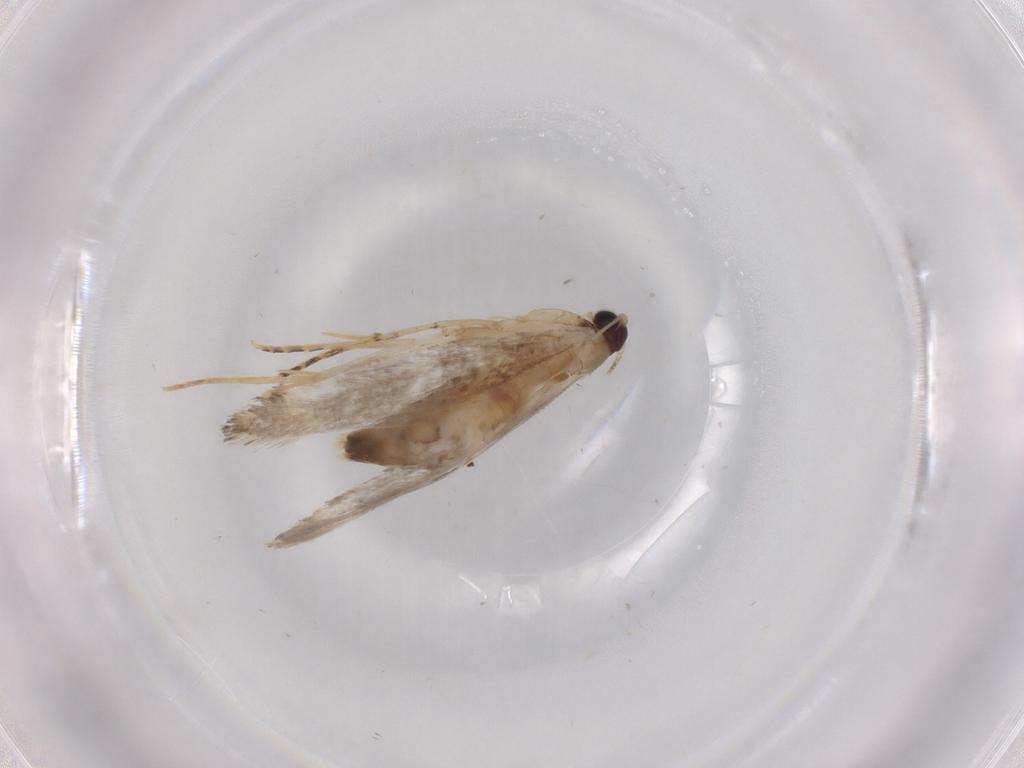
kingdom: Animalia
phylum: Arthropoda
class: Insecta
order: Lepidoptera
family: Tineidae
